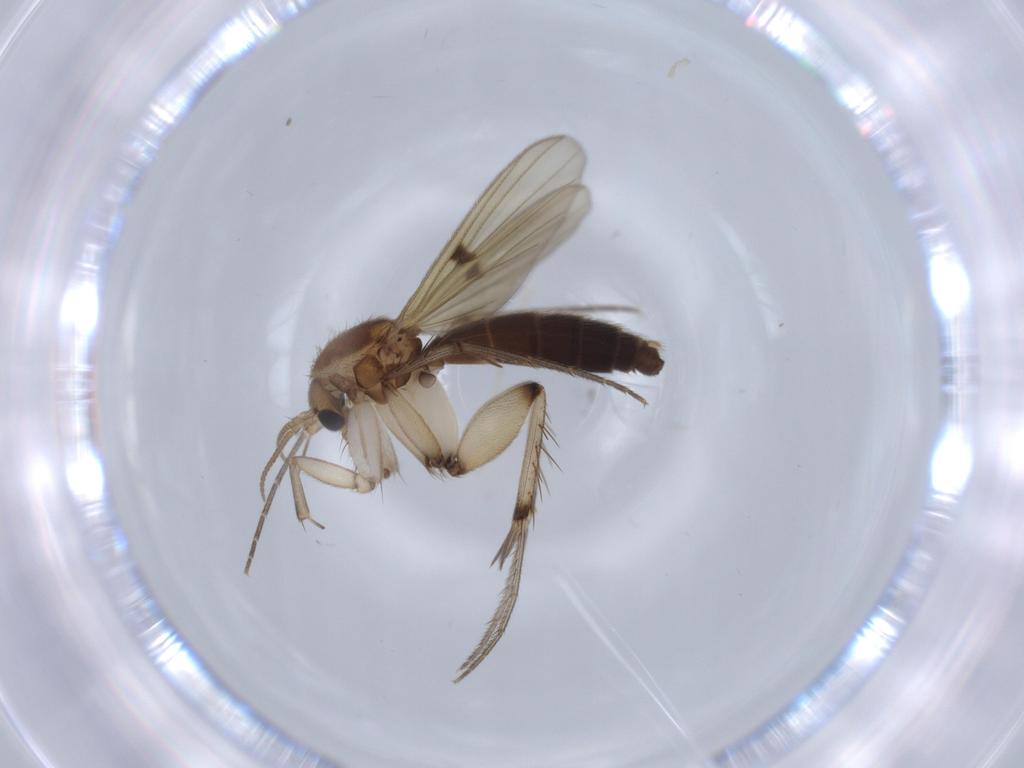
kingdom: Animalia
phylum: Arthropoda
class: Insecta
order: Diptera
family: Cecidomyiidae
